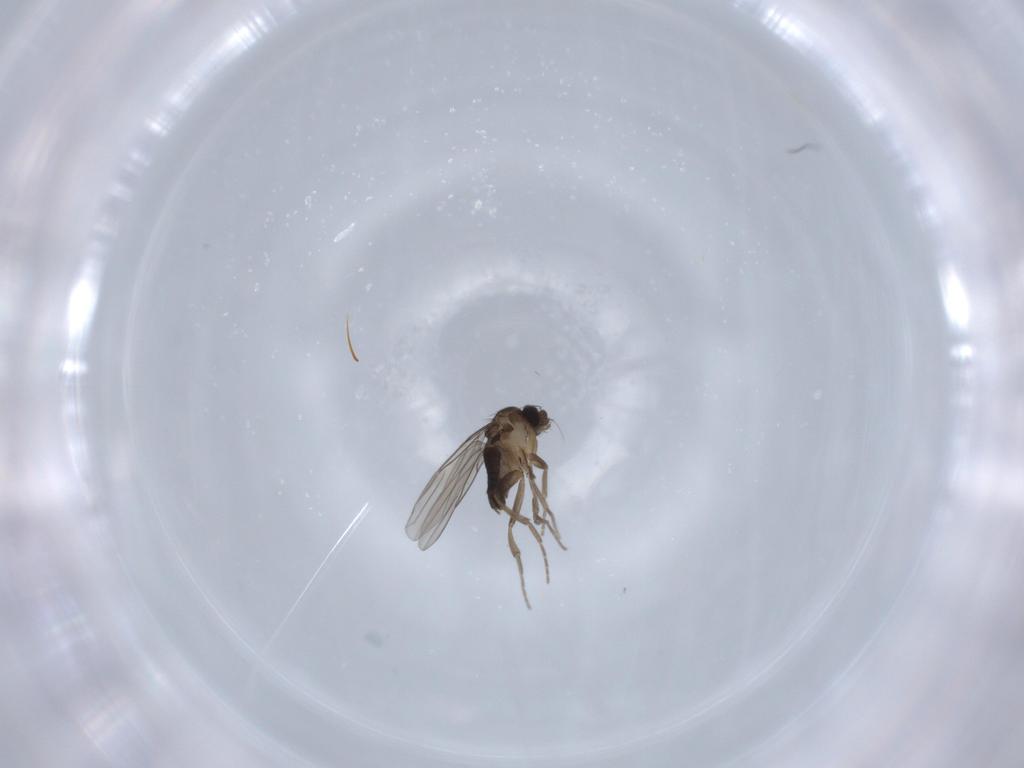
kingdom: Animalia
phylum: Arthropoda
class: Insecta
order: Diptera
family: Phoridae
